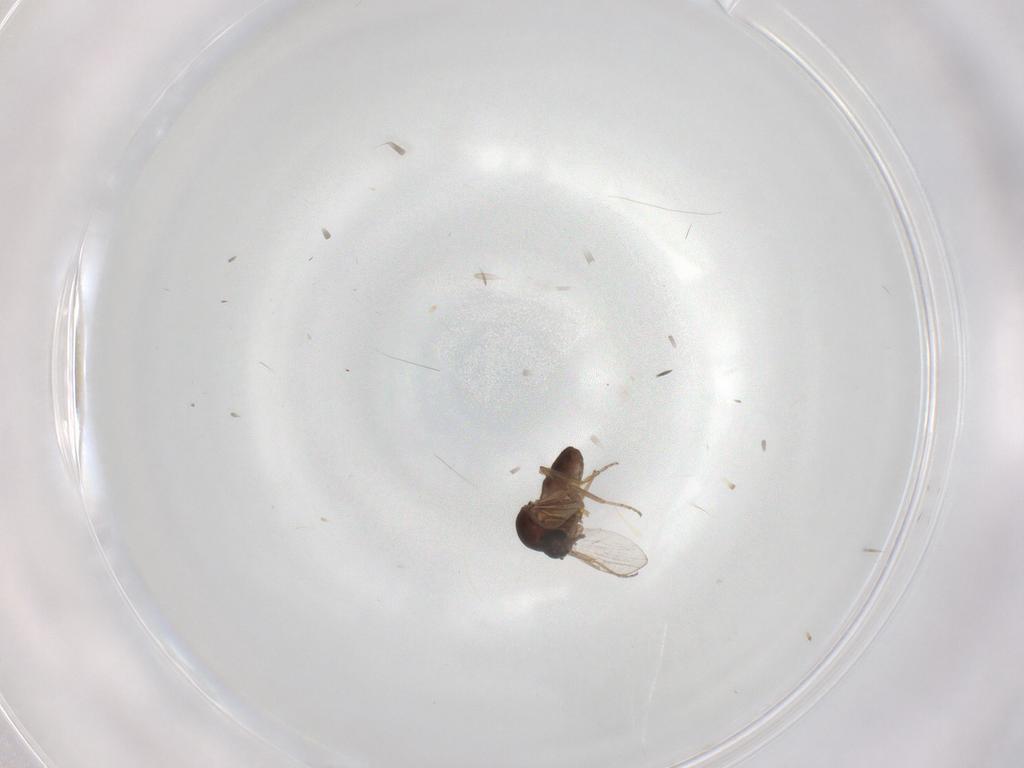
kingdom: Animalia
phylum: Arthropoda
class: Insecta
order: Diptera
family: Ceratopogonidae
